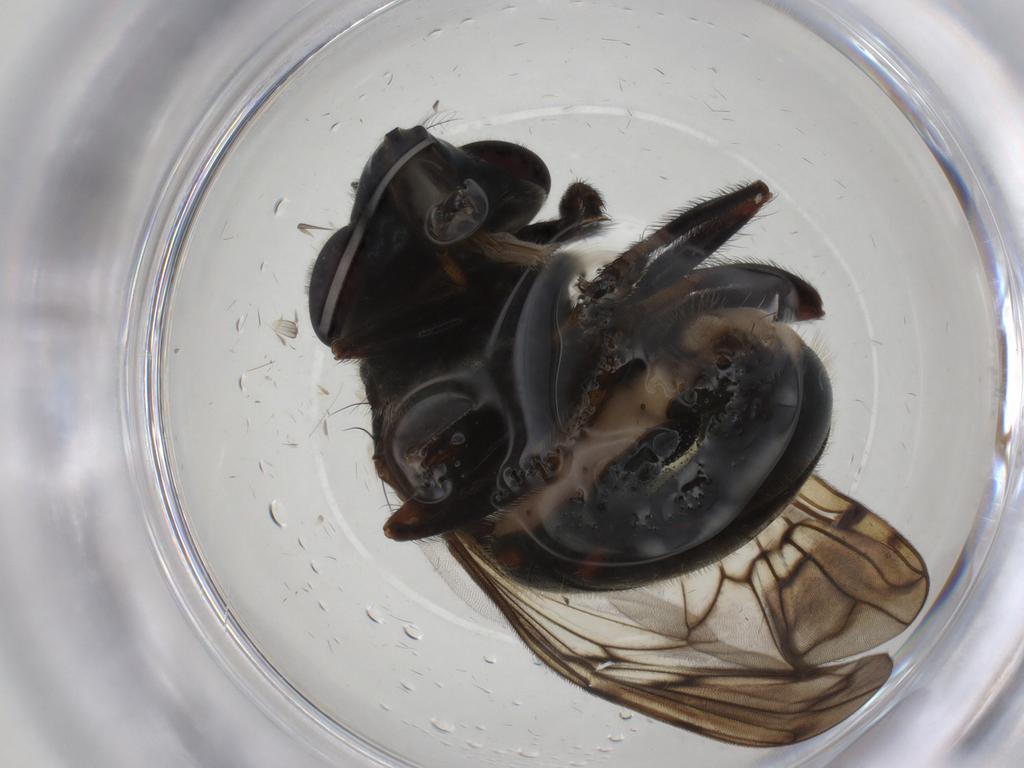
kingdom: Animalia
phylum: Arthropoda
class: Insecta
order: Diptera
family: Syrphidae
